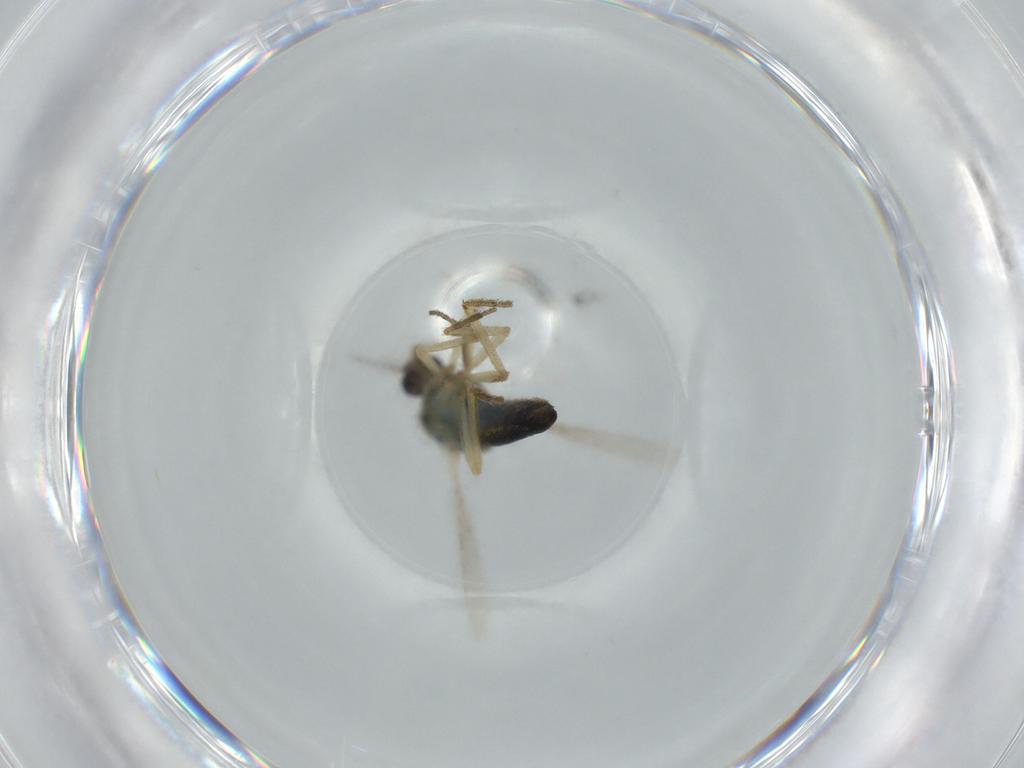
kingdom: Animalia
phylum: Arthropoda
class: Insecta
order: Diptera
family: Ceratopogonidae
